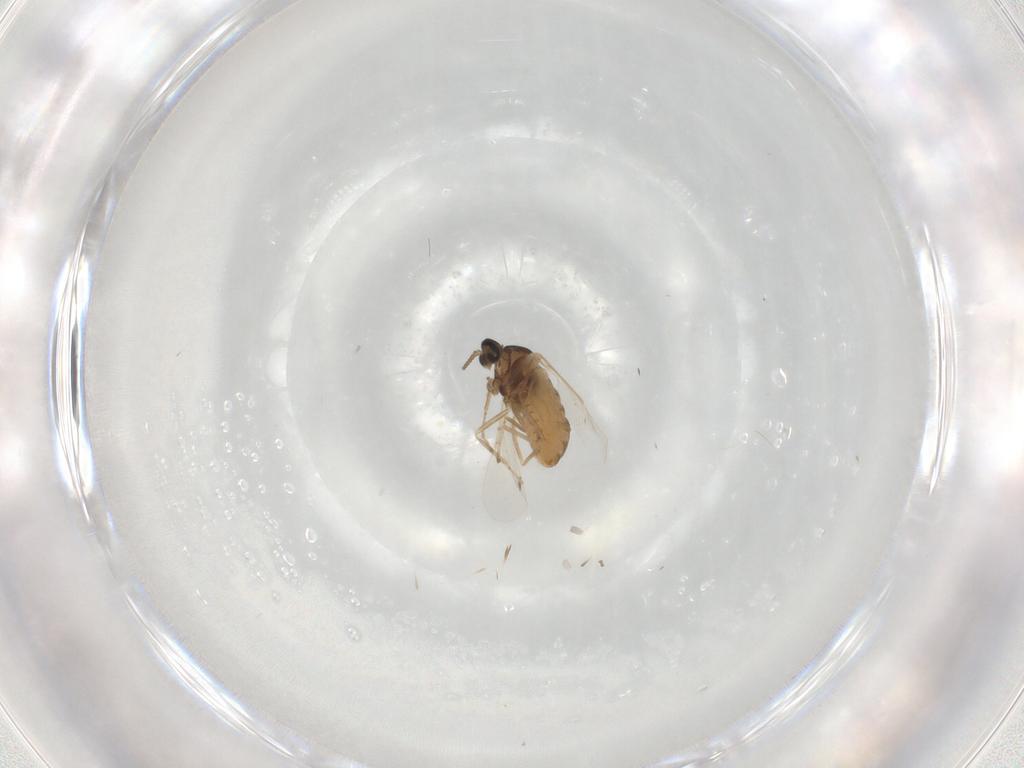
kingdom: Animalia
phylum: Arthropoda
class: Insecta
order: Diptera
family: Cecidomyiidae
